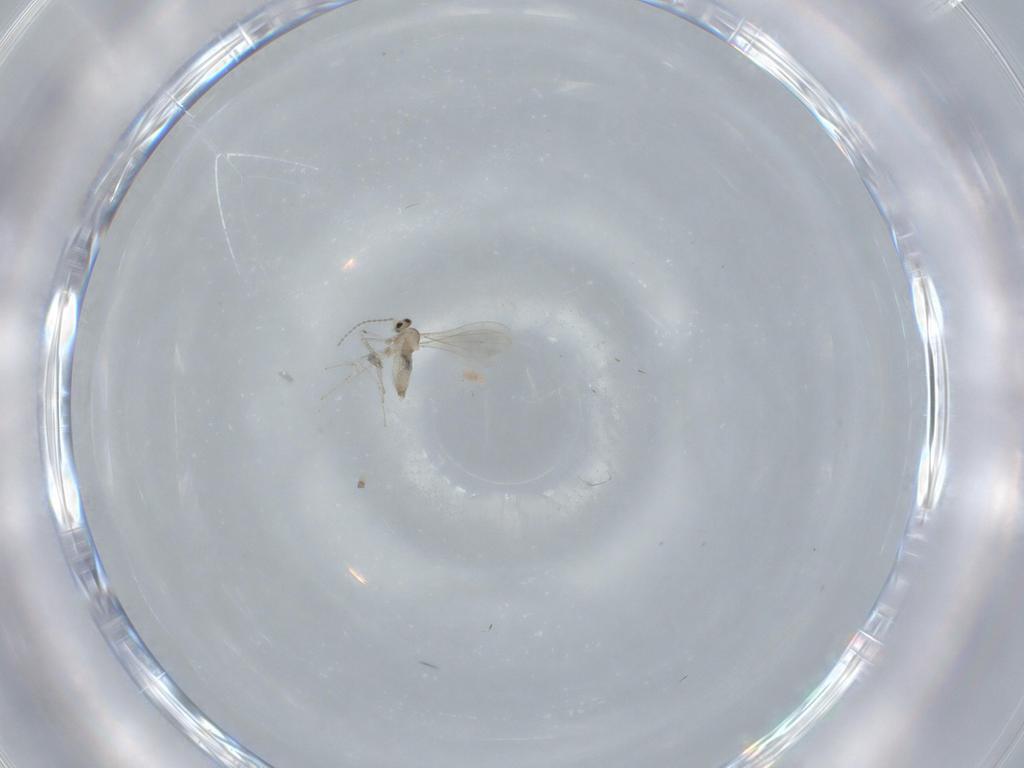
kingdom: Animalia
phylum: Arthropoda
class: Insecta
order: Diptera
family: Cecidomyiidae
